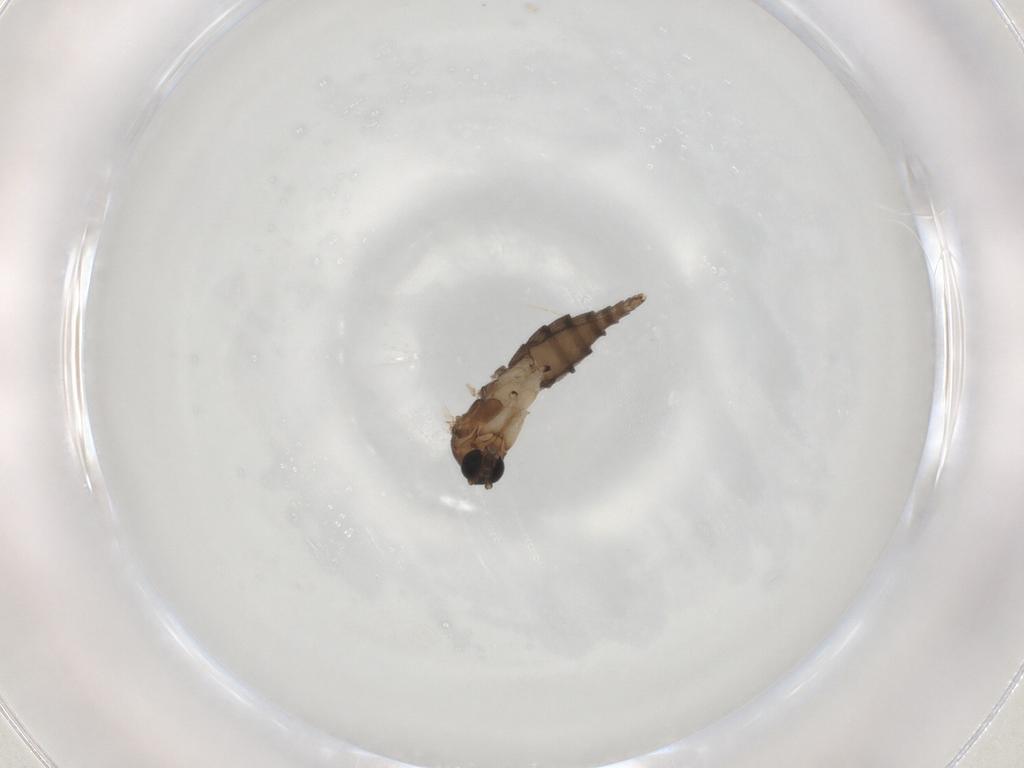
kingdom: Animalia
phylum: Arthropoda
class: Insecta
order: Diptera
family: Sciaridae
